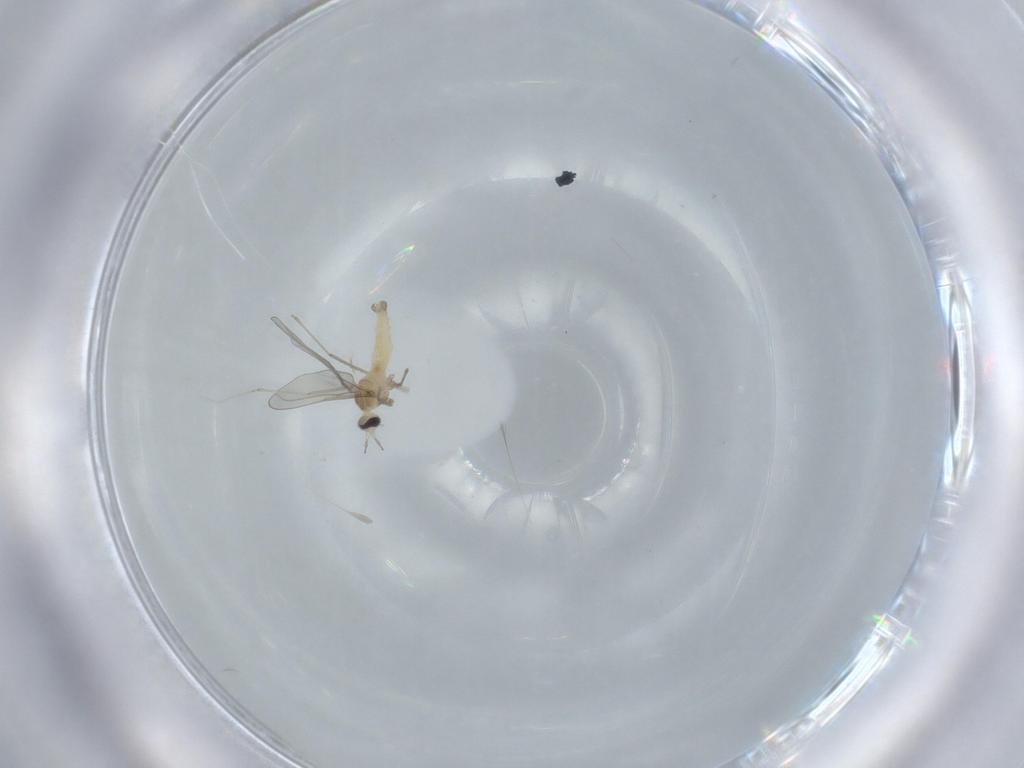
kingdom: Animalia
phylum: Arthropoda
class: Insecta
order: Diptera
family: Cecidomyiidae
